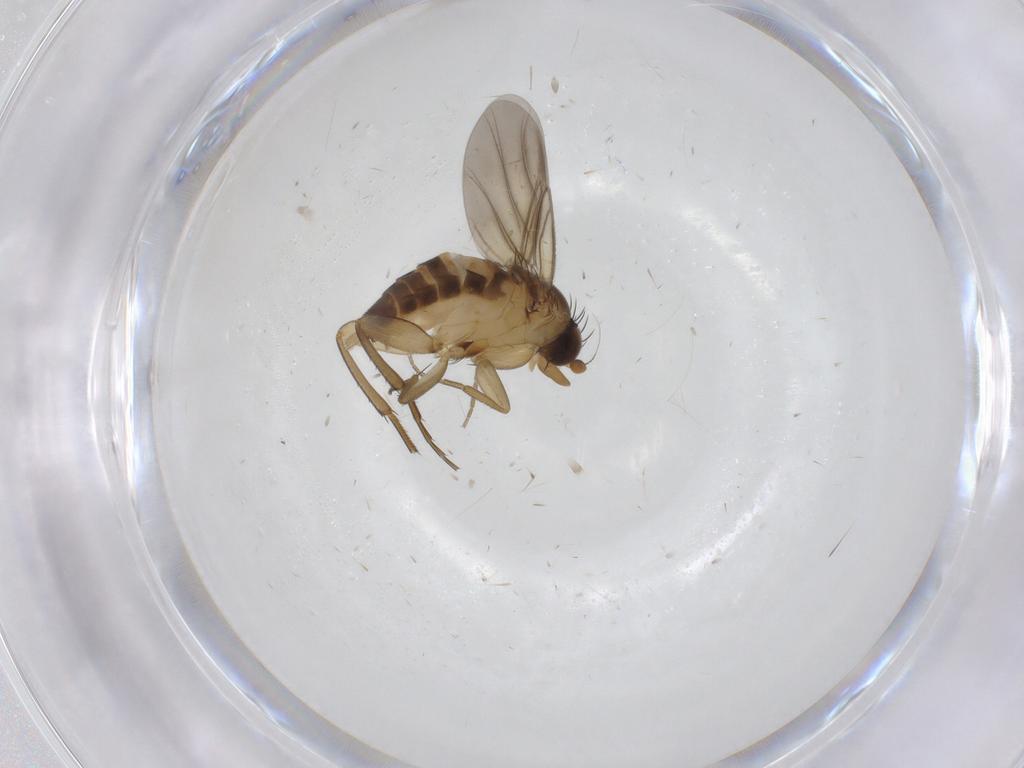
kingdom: Animalia
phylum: Arthropoda
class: Insecta
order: Diptera
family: Phoridae
